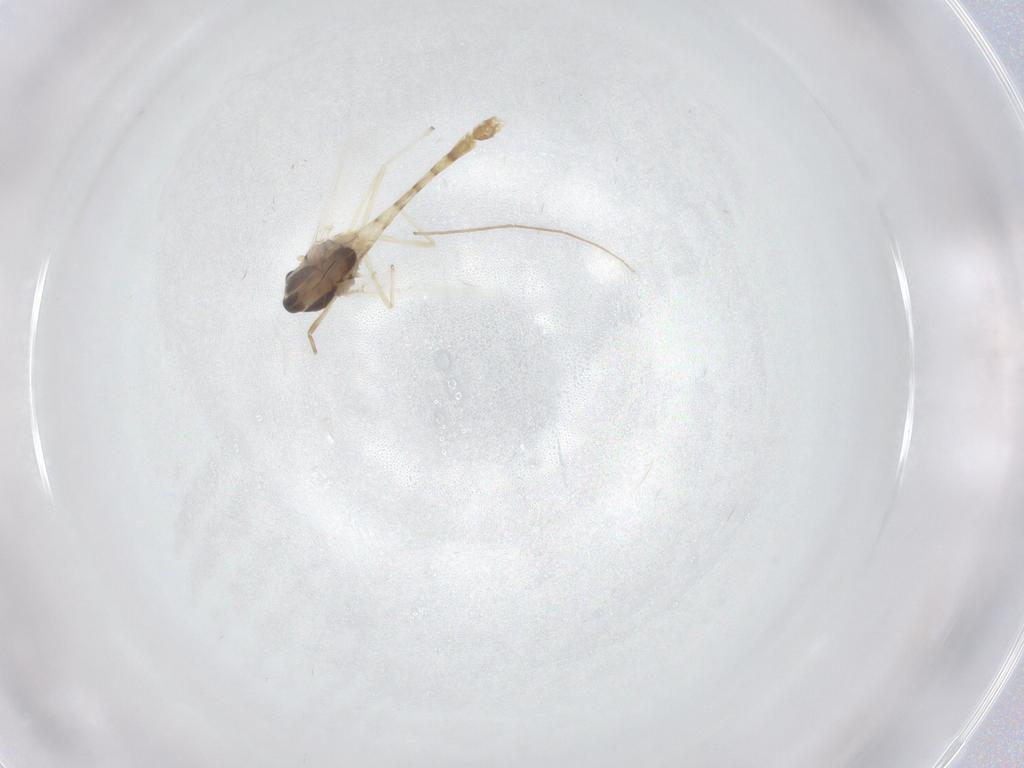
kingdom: Animalia
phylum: Arthropoda
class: Insecta
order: Diptera
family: Chironomidae
